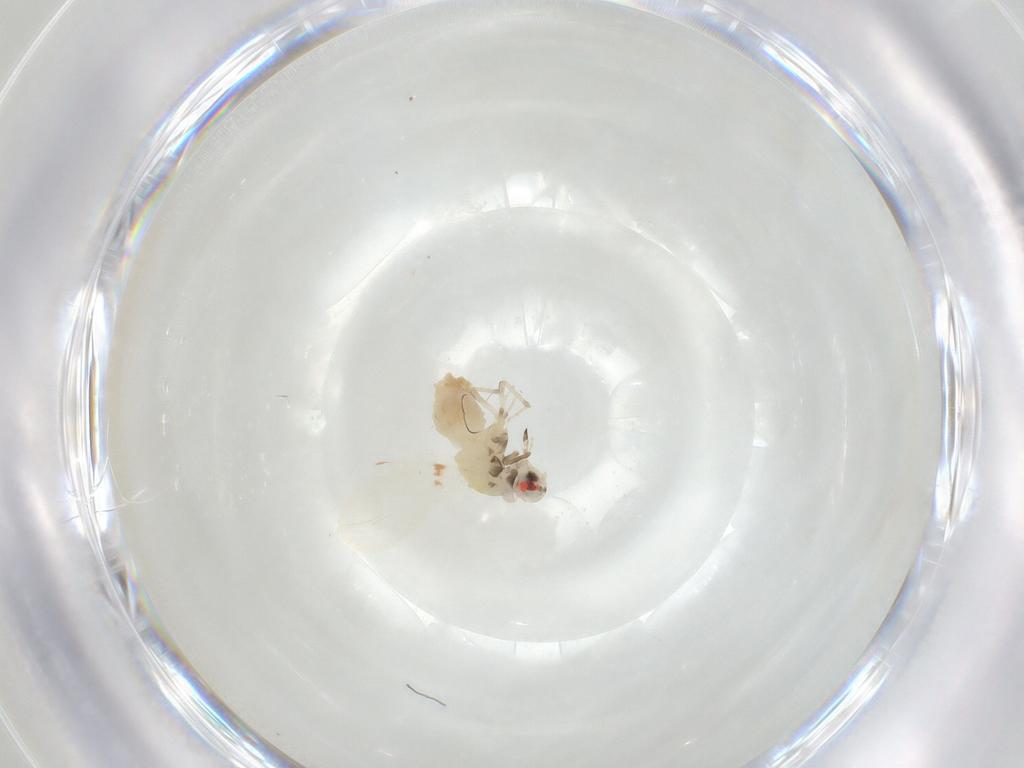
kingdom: Animalia
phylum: Arthropoda
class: Insecta
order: Hemiptera
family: Aleyrodidae
